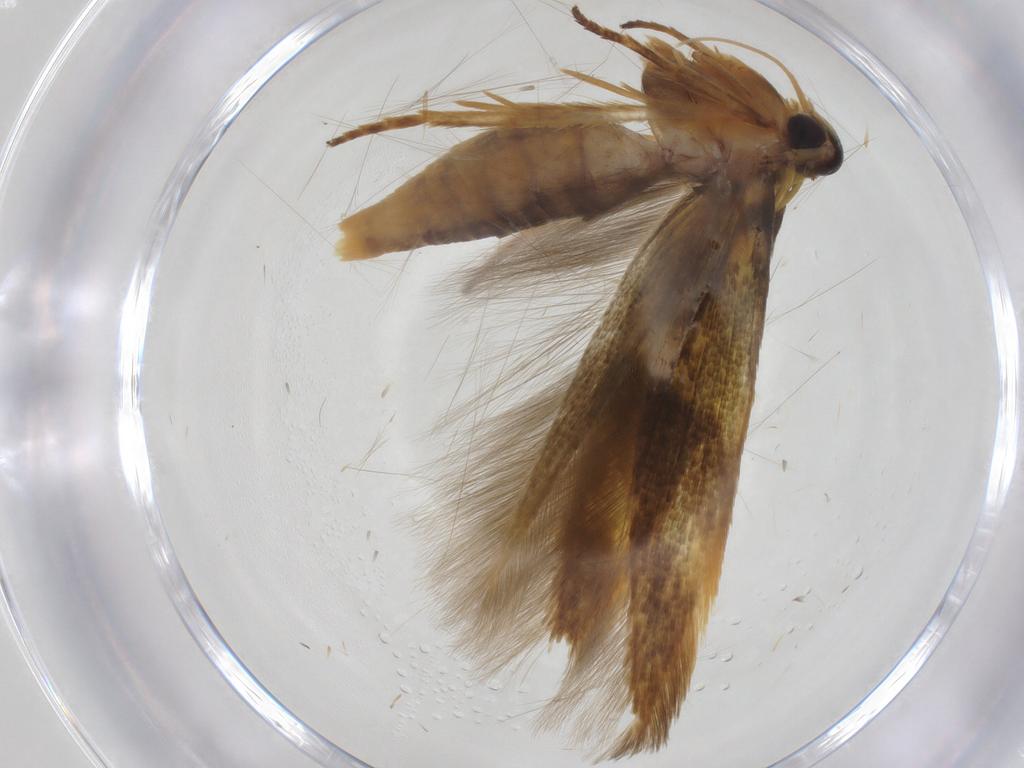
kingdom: Animalia
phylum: Arthropoda
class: Insecta
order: Lepidoptera
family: Stathmopodidae
